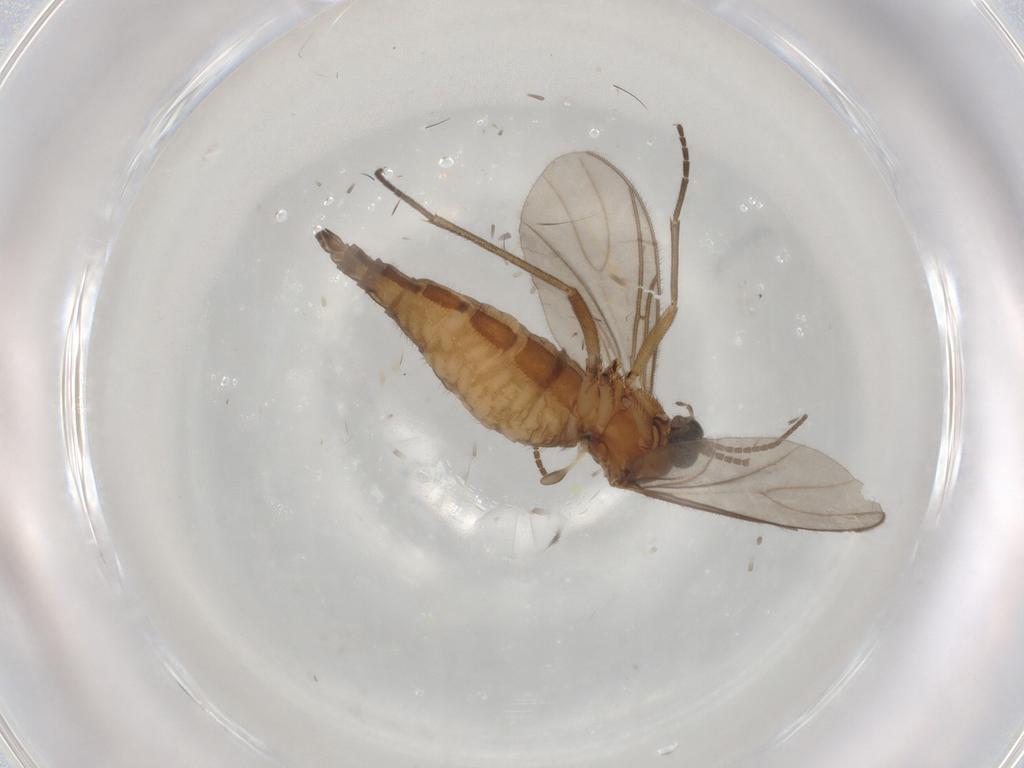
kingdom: Animalia
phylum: Arthropoda
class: Insecta
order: Diptera
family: Sciaridae
